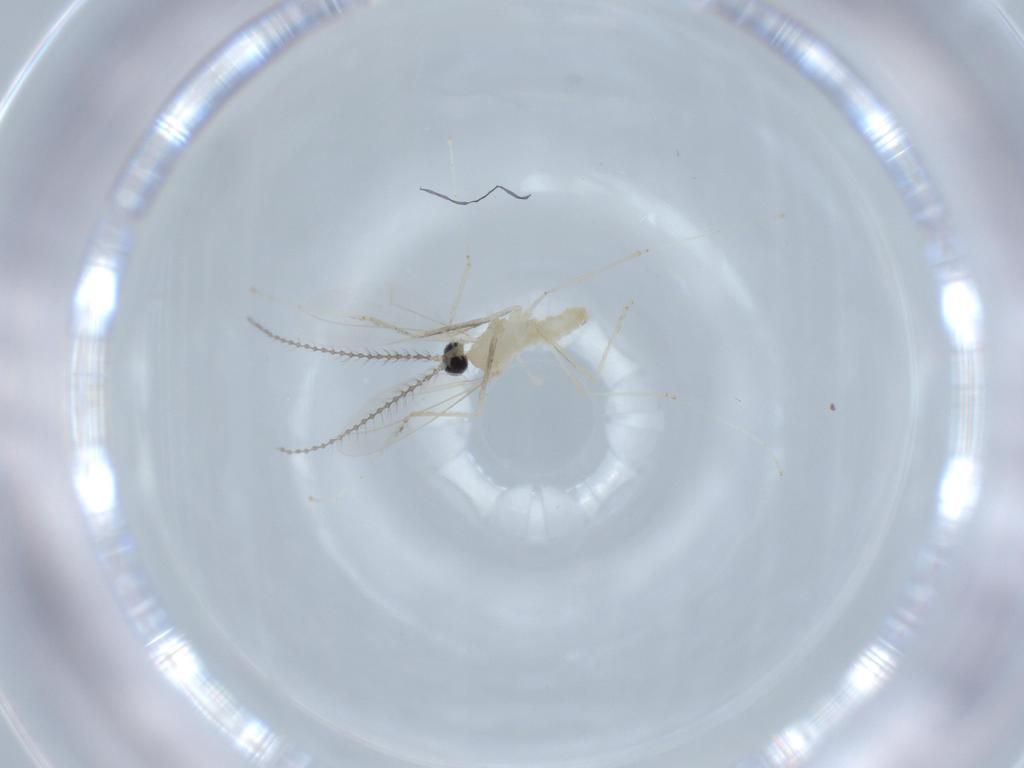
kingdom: Animalia
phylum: Arthropoda
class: Insecta
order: Diptera
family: Cecidomyiidae
